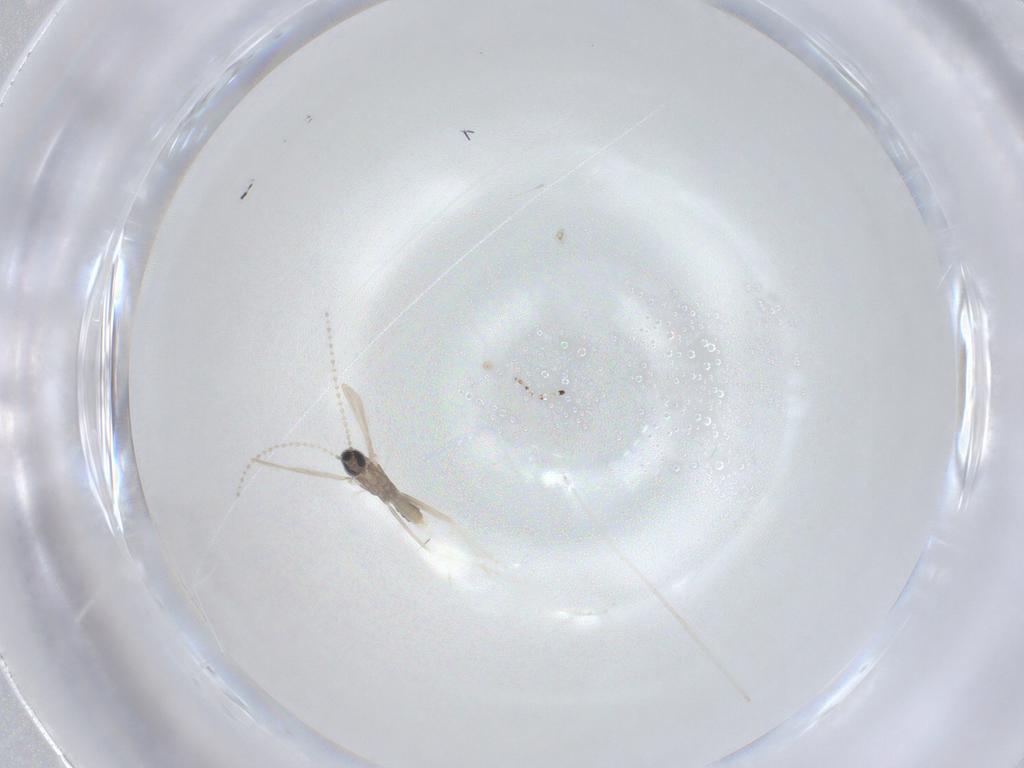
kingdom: Animalia
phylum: Arthropoda
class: Insecta
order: Diptera
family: Cecidomyiidae
